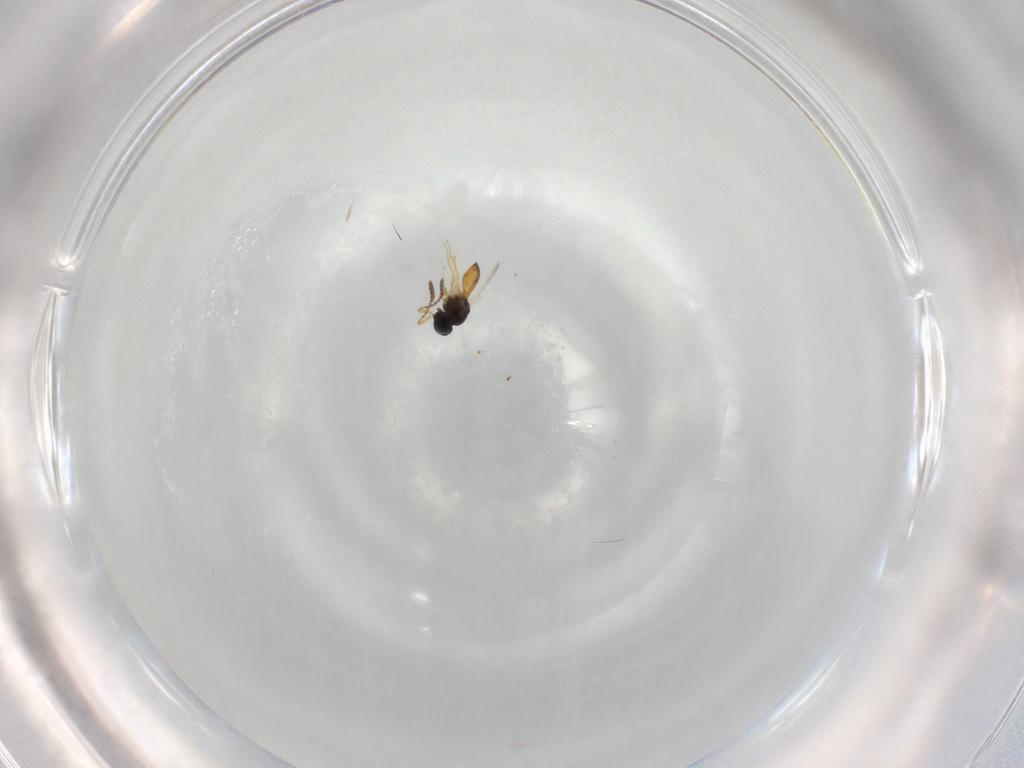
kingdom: Animalia
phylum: Arthropoda
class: Insecta
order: Hymenoptera
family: Scelionidae
